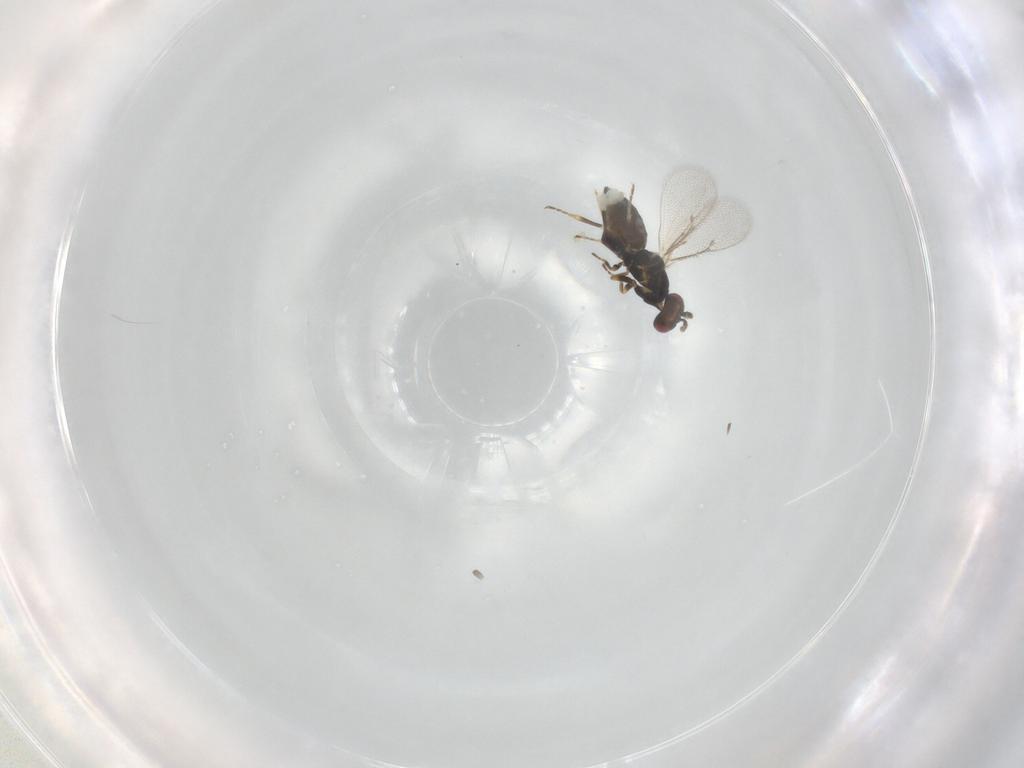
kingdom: Animalia
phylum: Arthropoda
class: Insecta
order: Hymenoptera
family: Eulophidae
